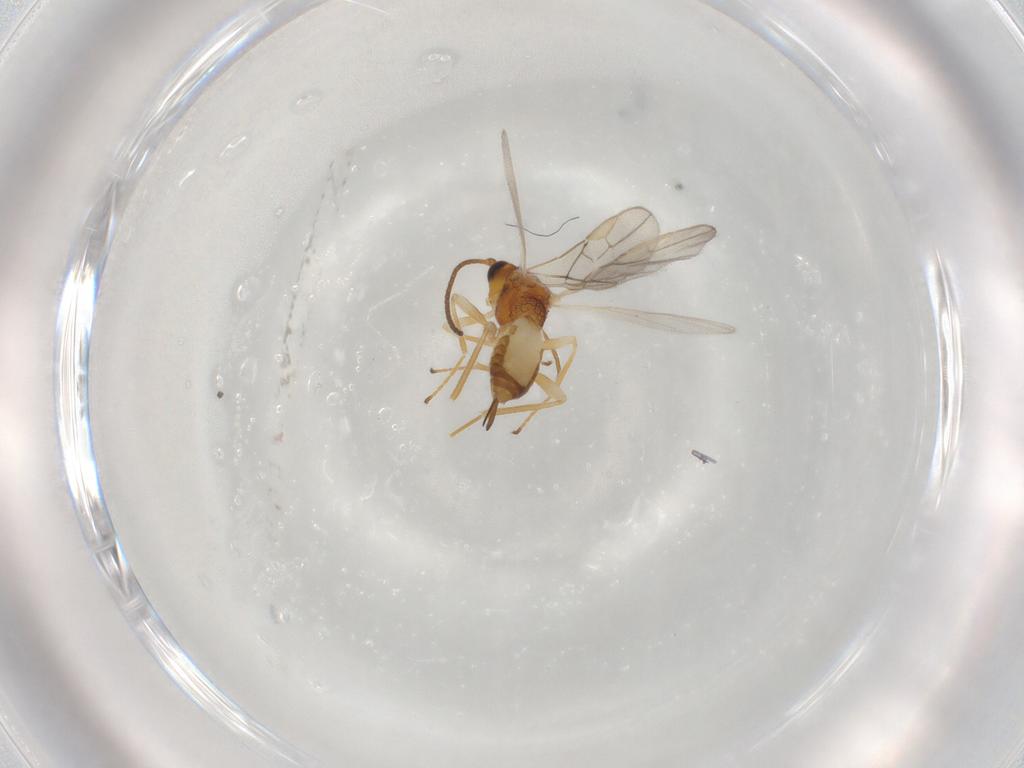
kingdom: Animalia
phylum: Arthropoda
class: Insecta
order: Hymenoptera
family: Braconidae
